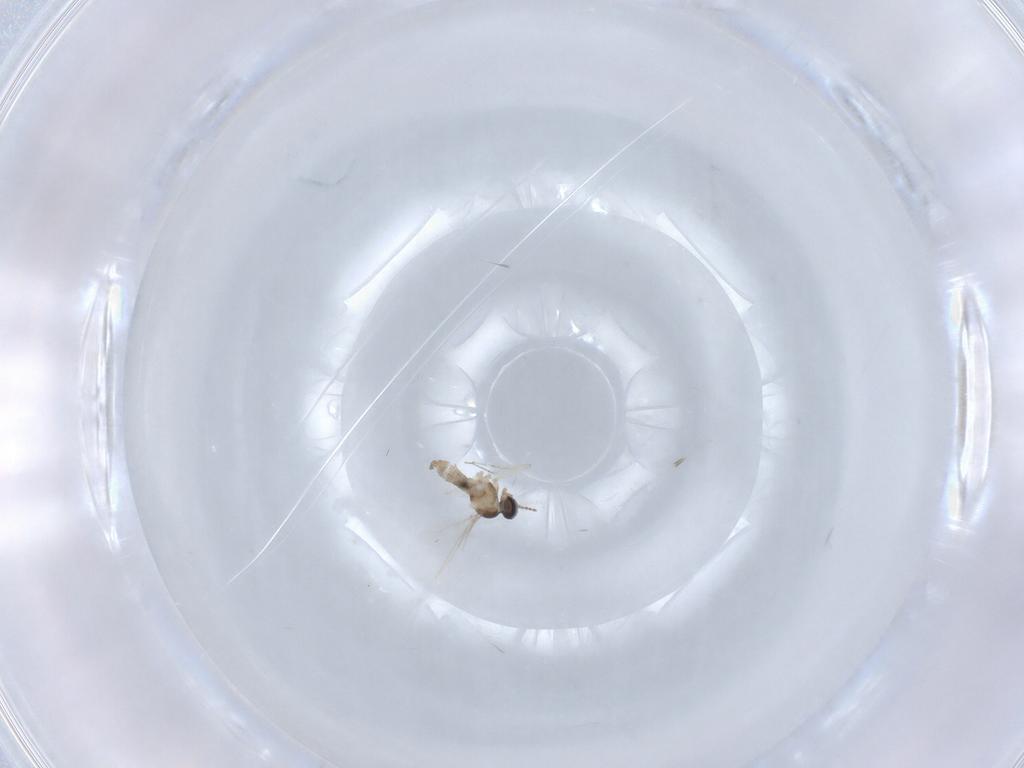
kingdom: Animalia
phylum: Arthropoda
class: Insecta
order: Diptera
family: Cecidomyiidae
